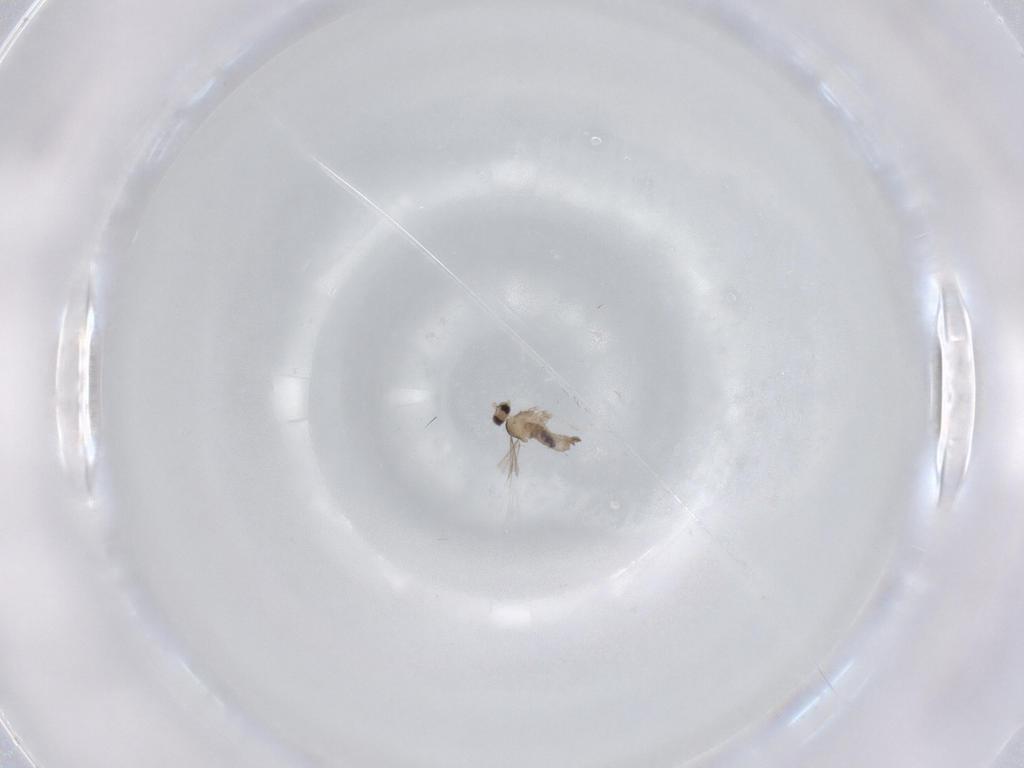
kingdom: Animalia
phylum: Arthropoda
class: Insecta
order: Diptera
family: Cecidomyiidae
